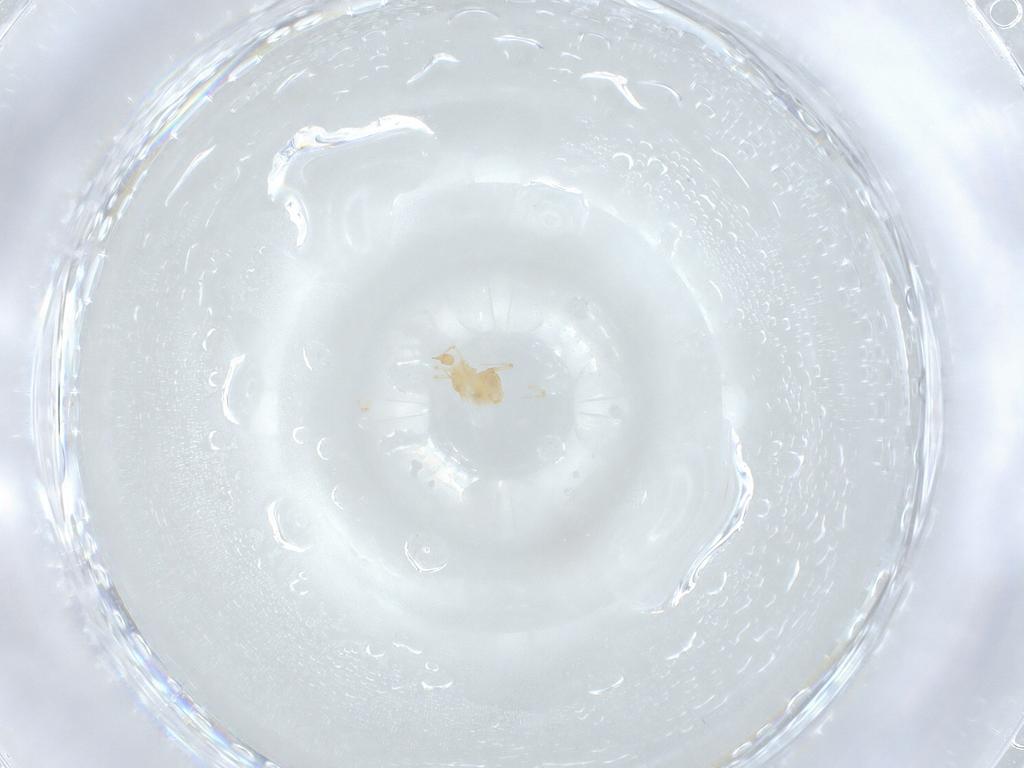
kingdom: Animalia
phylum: Arthropoda
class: Arachnida
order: Trombidiformes
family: Cunaxidae
